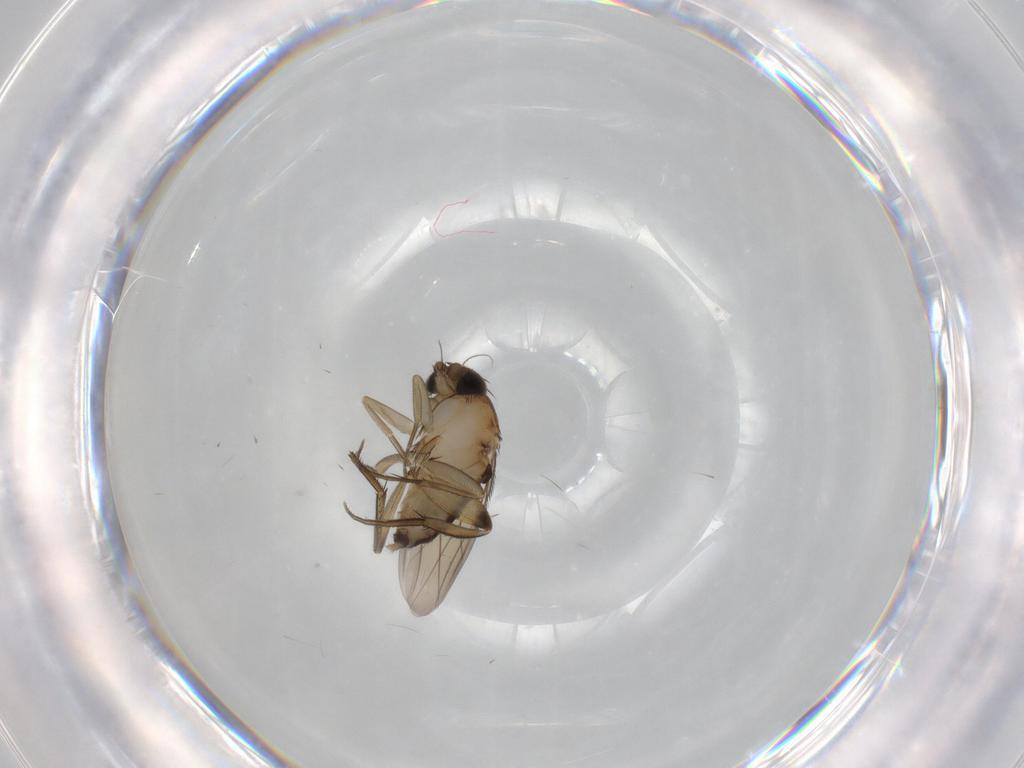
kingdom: Animalia
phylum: Arthropoda
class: Insecta
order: Diptera
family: Phoridae
